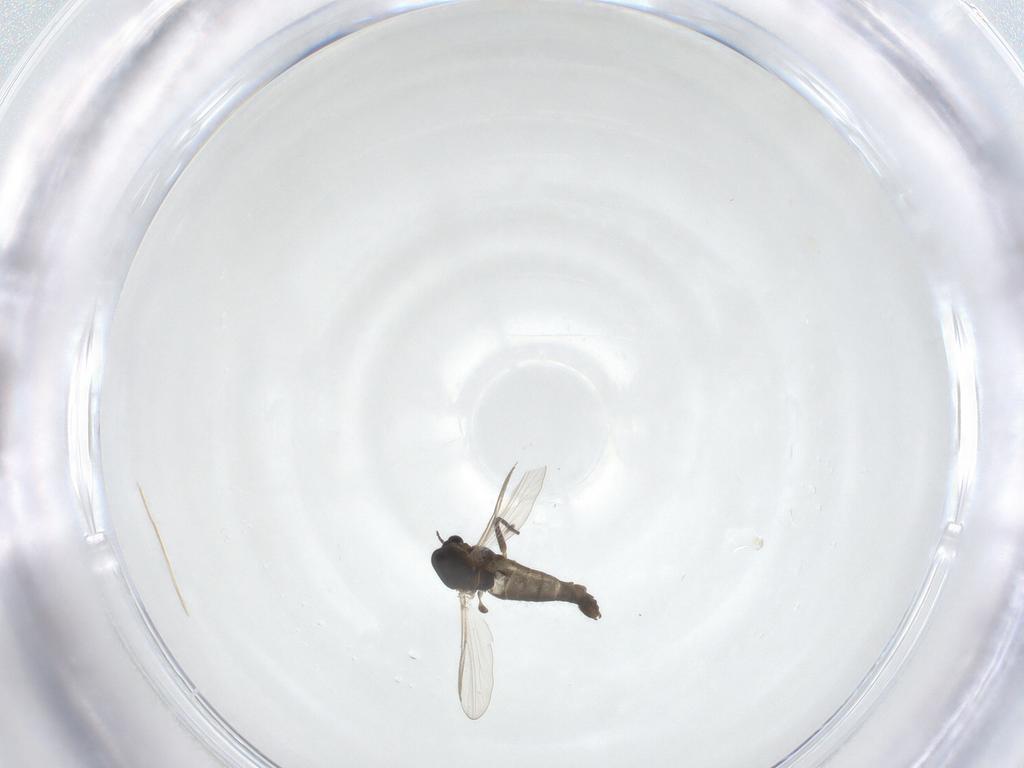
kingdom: Animalia
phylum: Arthropoda
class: Insecta
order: Diptera
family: Chironomidae
